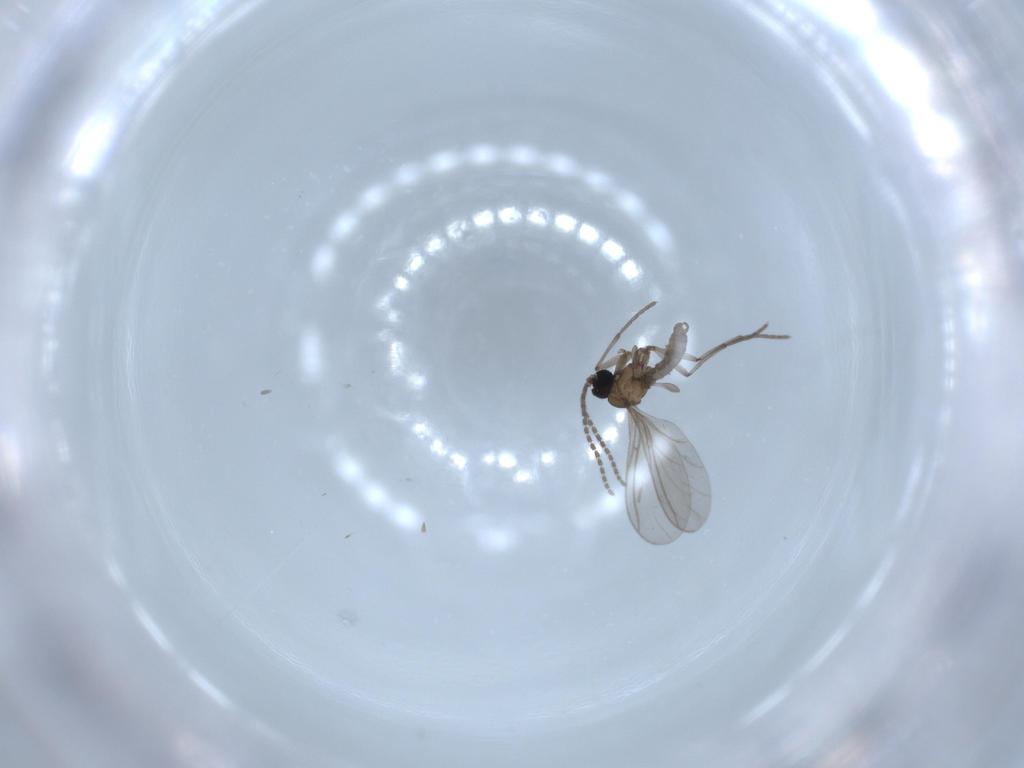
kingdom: Animalia
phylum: Arthropoda
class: Insecta
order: Diptera
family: Sciaridae
